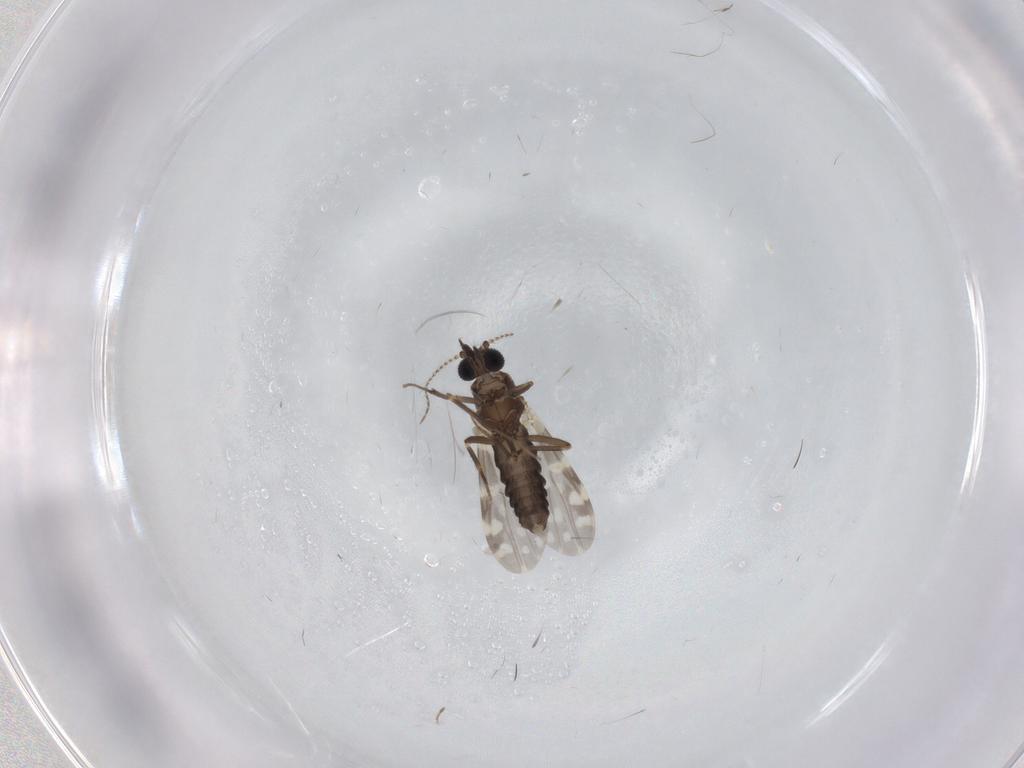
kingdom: Animalia
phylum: Arthropoda
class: Insecta
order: Diptera
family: Ceratopogonidae
